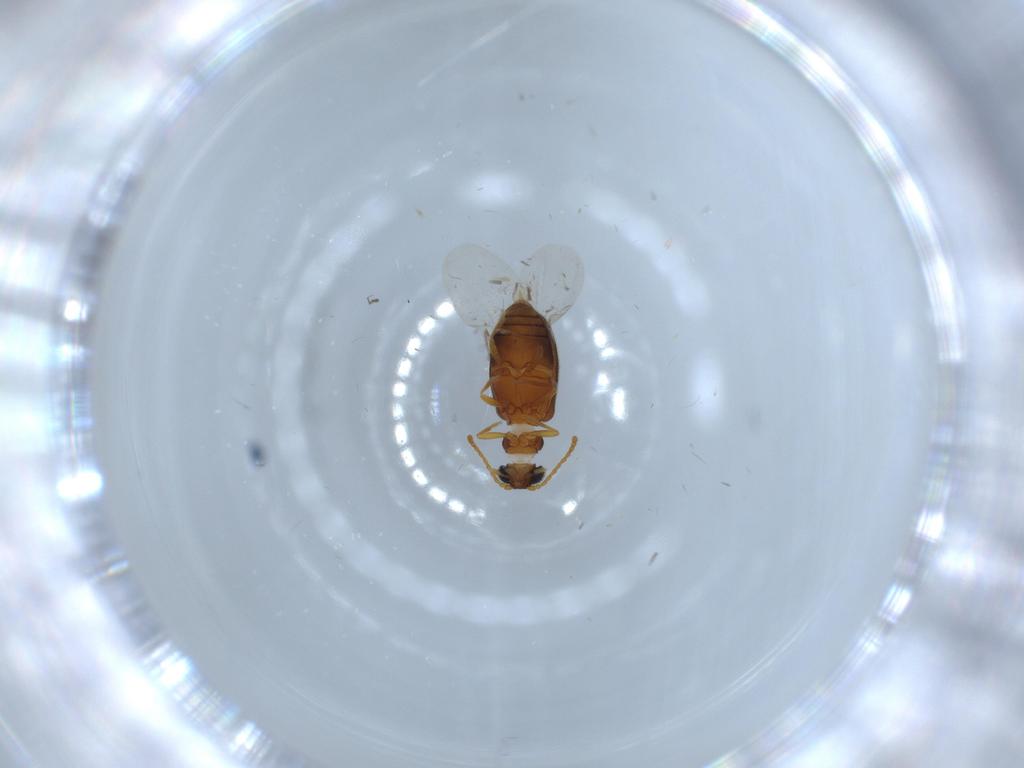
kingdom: Animalia
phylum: Arthropoda
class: Insecta
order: Coleoptera
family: Aderidae
